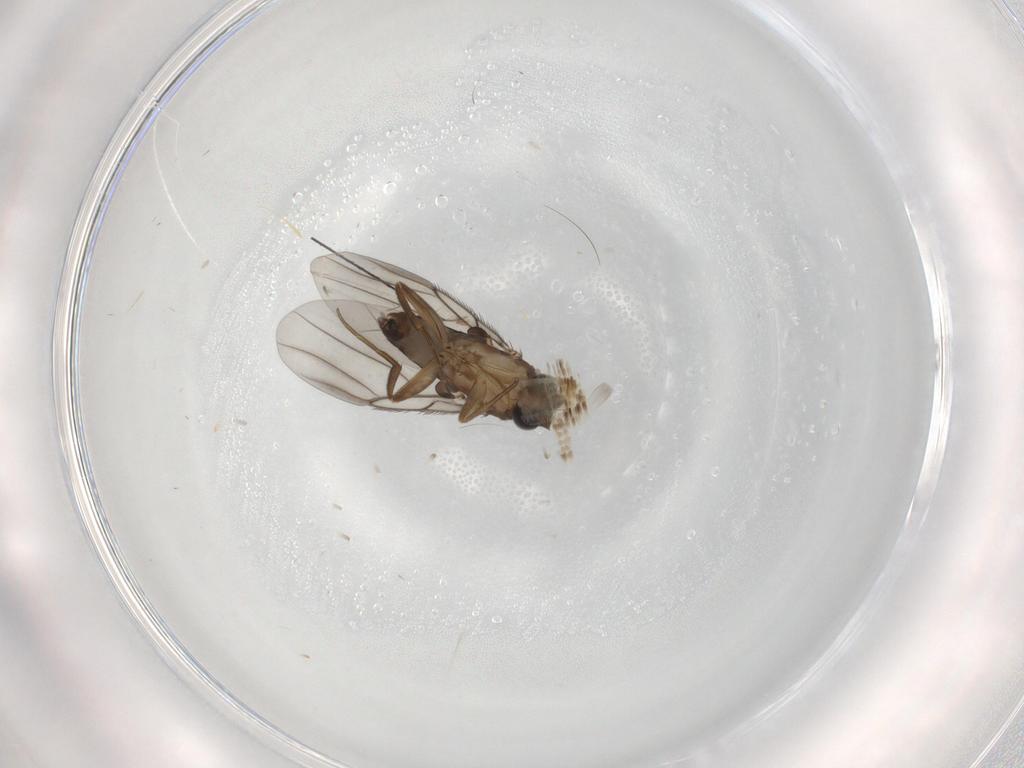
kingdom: Animalia
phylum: Arthropoda
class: Insecta
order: Diptera
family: Phoridae
